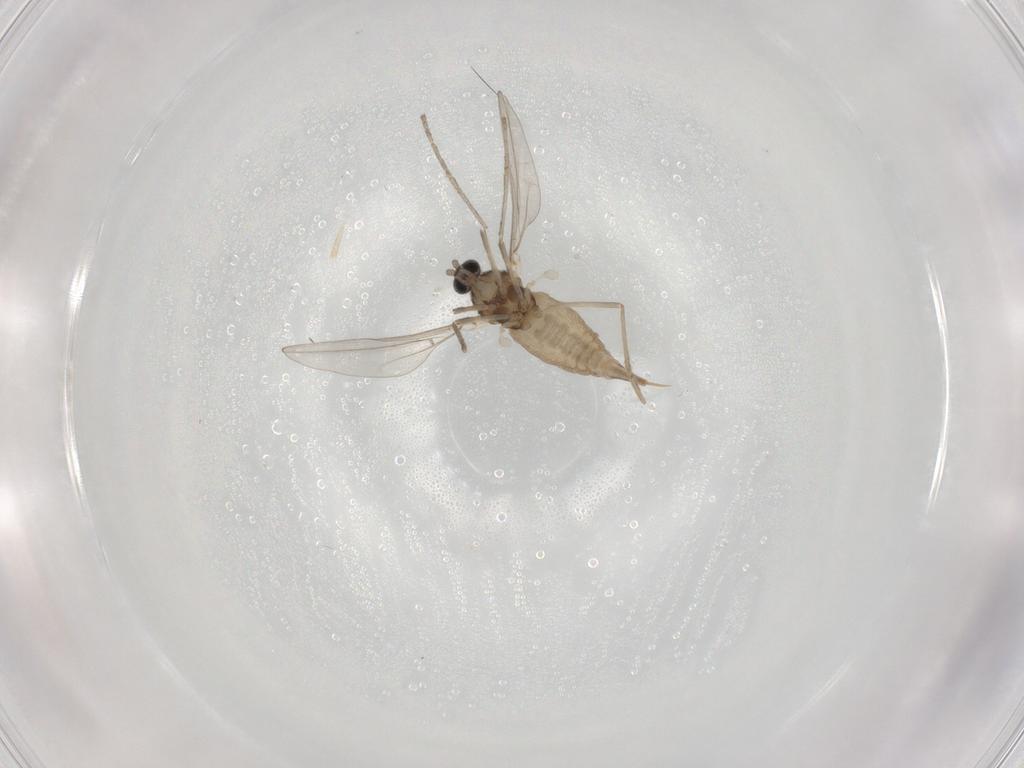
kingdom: Animalia
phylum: Arthropoda
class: Insecta
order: Diptera
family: Cecidomyiidae
